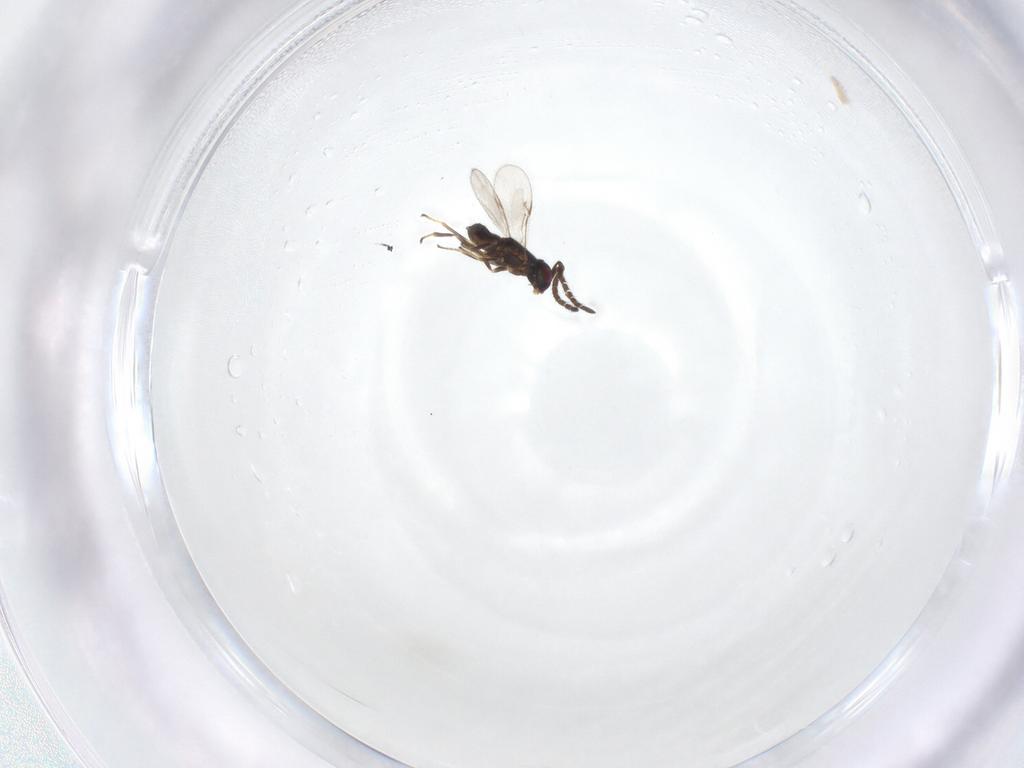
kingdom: Animalia
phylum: Arthropoda
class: Insecta
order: Hymenoptera
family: Encyrtidae
